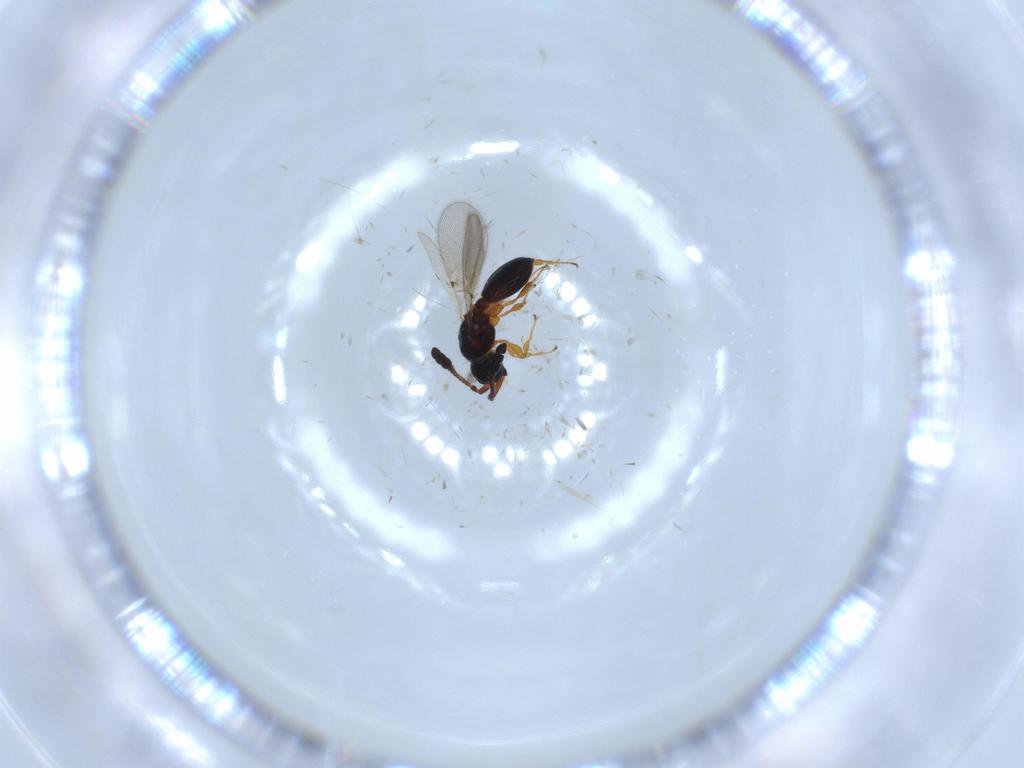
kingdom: Animalia
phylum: Arthropoda
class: Insecta
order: Hymenoptera
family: Diapriidae
